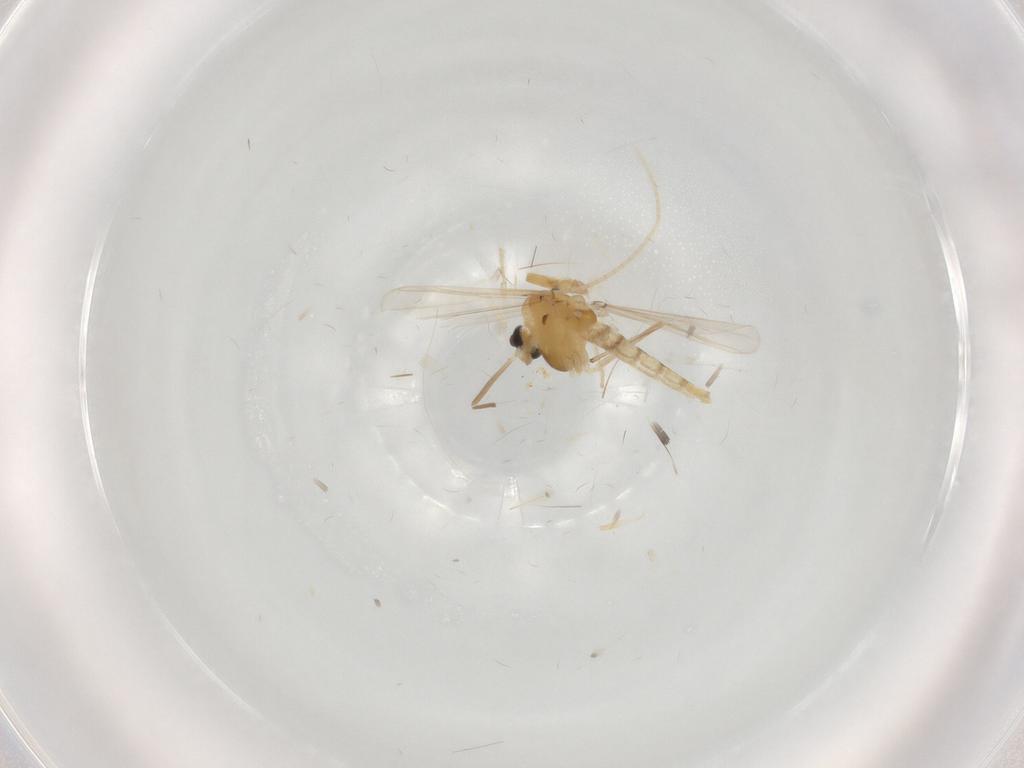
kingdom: Animalia
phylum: Arthropoda
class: Insecta
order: Diptera
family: Chironomidae
